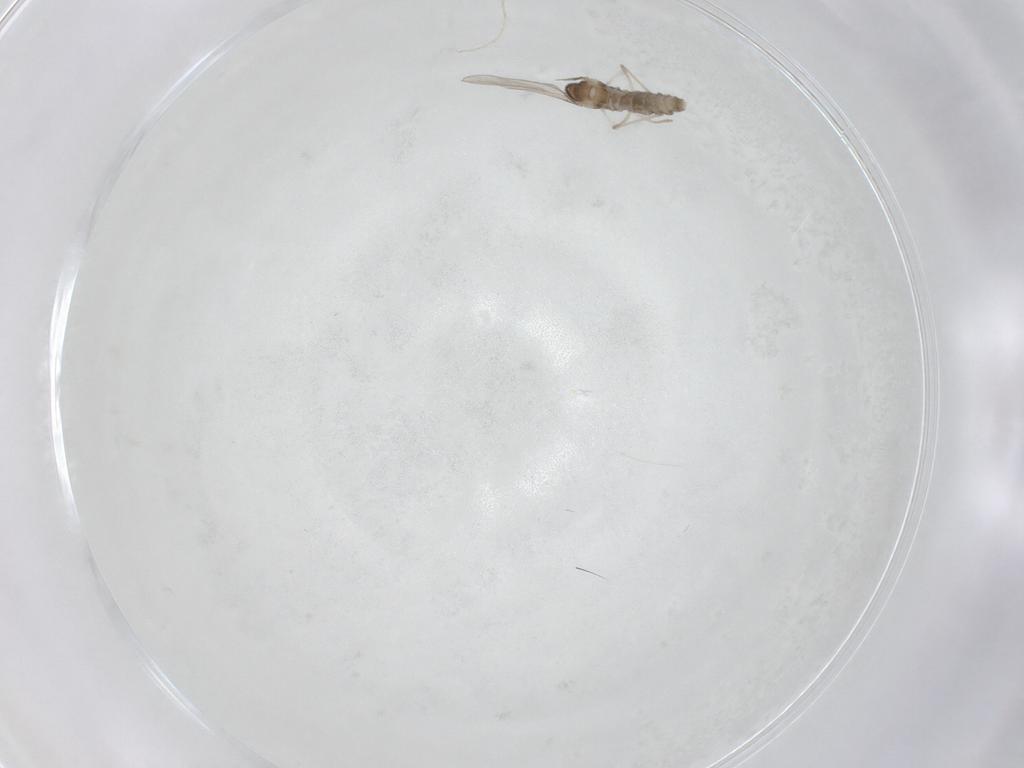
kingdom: Animalia
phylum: Arthropoda
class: Insecta
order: Diptera
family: Cecidomyiidae
